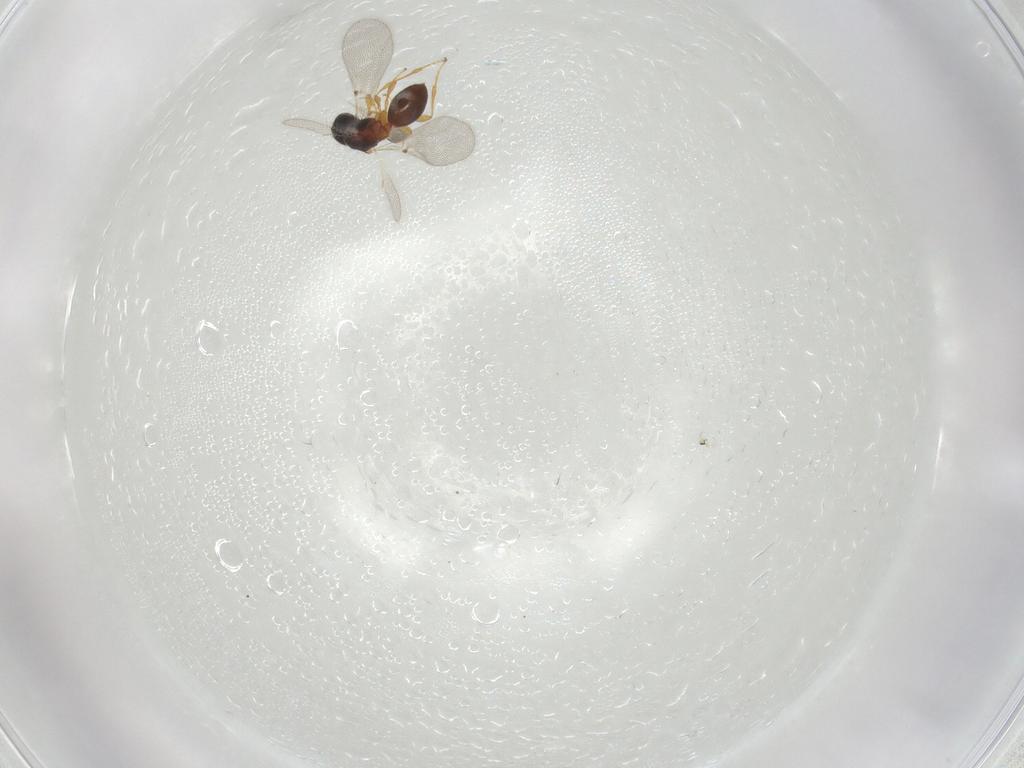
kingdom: Animalia
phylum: Arthropoda
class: Insecta
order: Hymenoptera
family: Diapriidae
